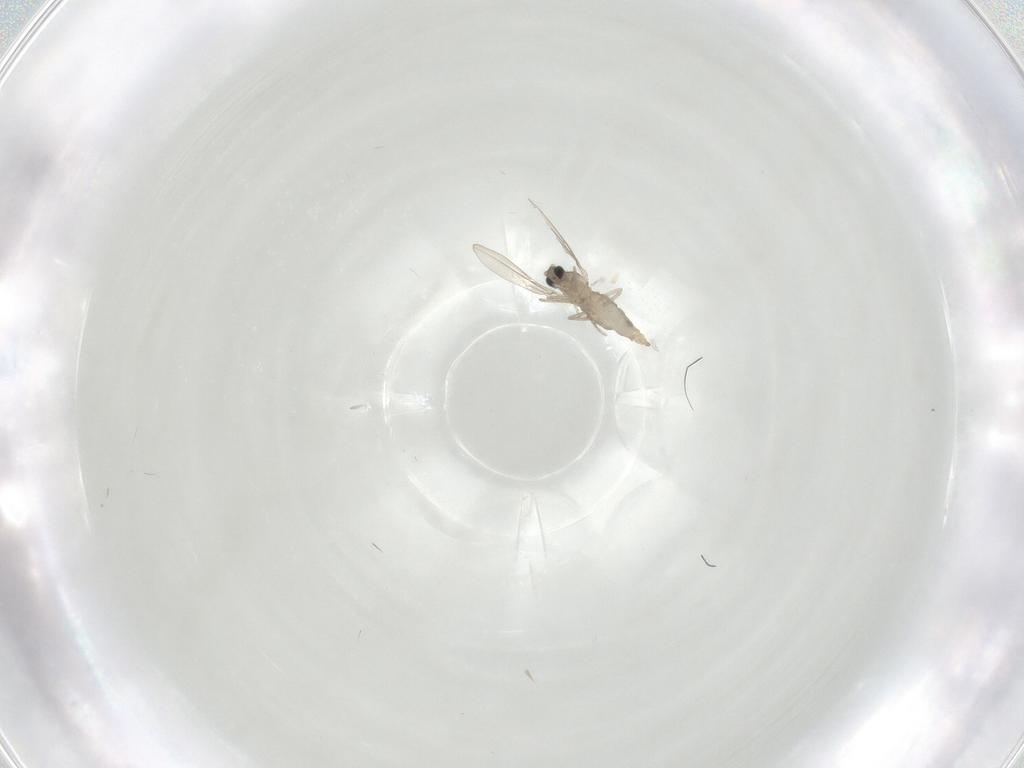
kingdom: Animalia
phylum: Arthropoda
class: Insecta
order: Diptera
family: Cecidomyiidae
